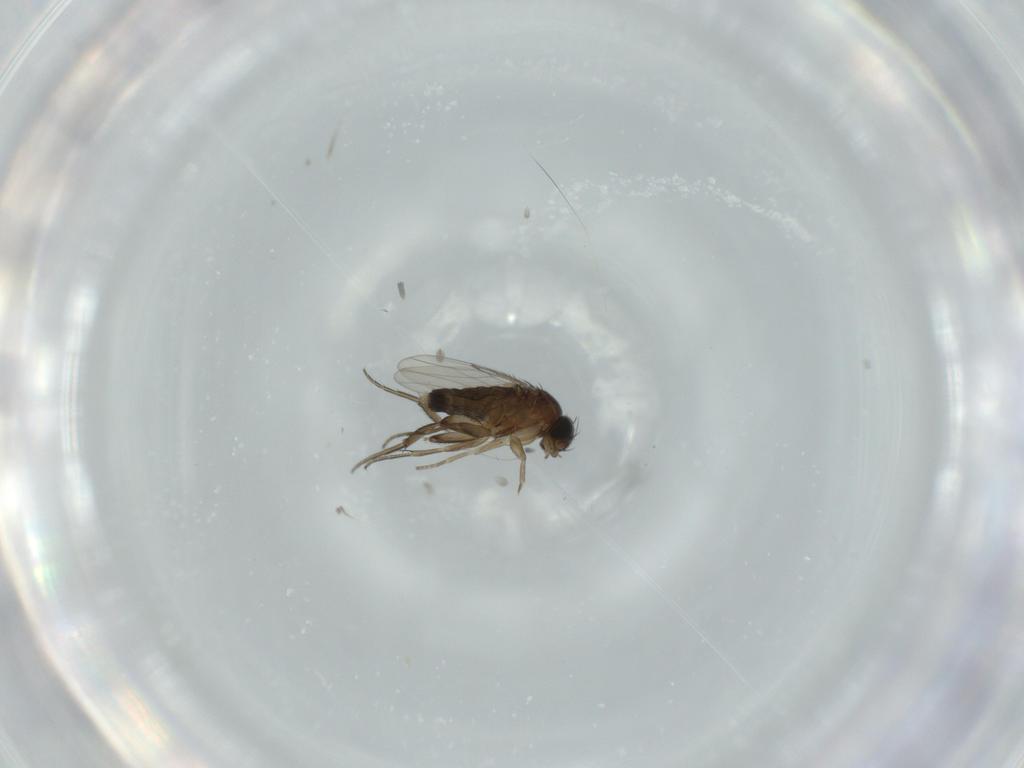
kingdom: Animalia
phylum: Arthropoda
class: Insecta
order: Diptera
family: Phoridae
